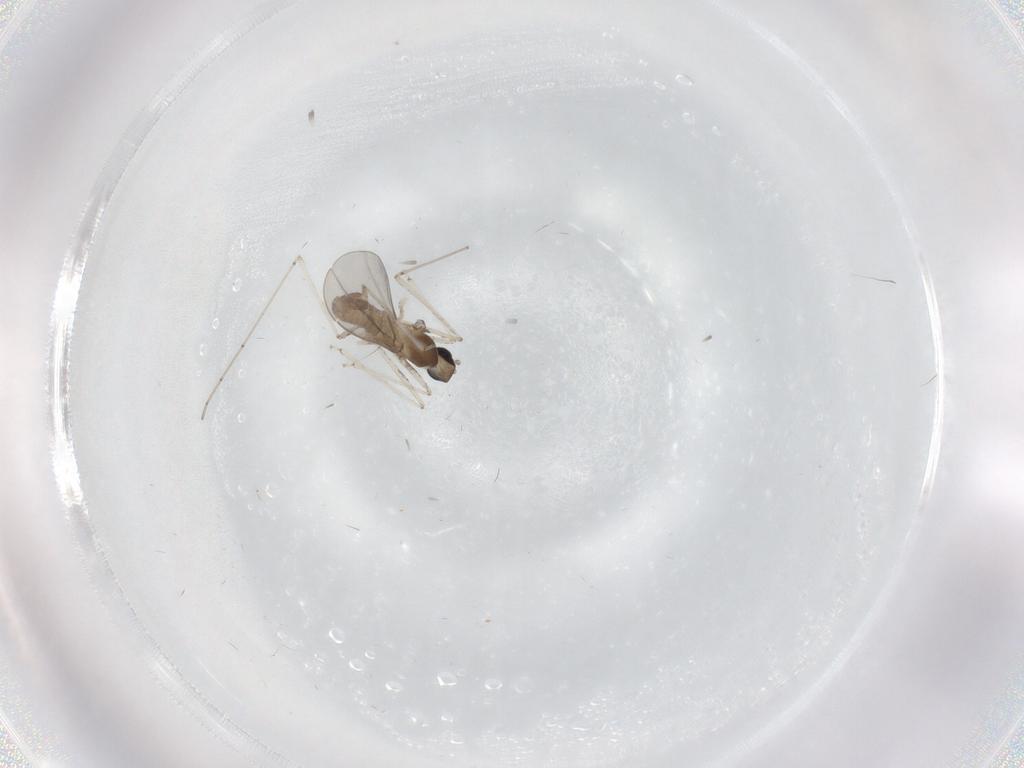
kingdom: Animalia
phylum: Arthropoda
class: Insecta
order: Diptera
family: Cecidomyiidae
